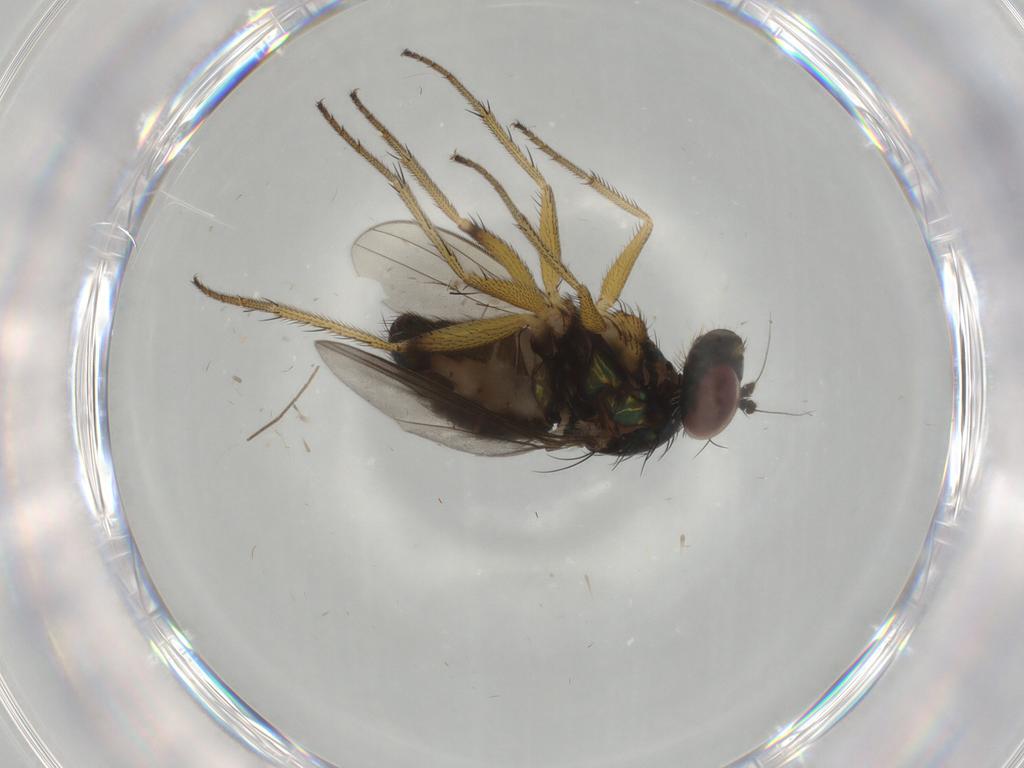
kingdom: Animalia
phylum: Arthropoda
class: Insecta
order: Diptera
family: Dolichopodidae
